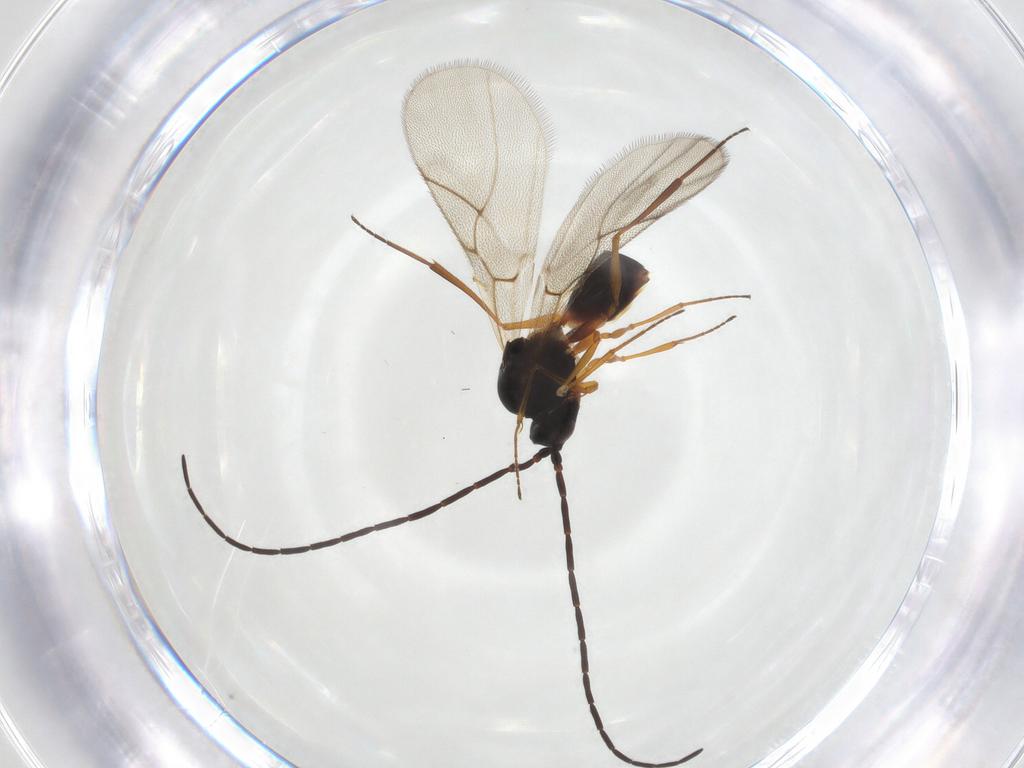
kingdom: Animalia
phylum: Arthropoda
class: Insecta
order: Hymenoptera
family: Figitidae
